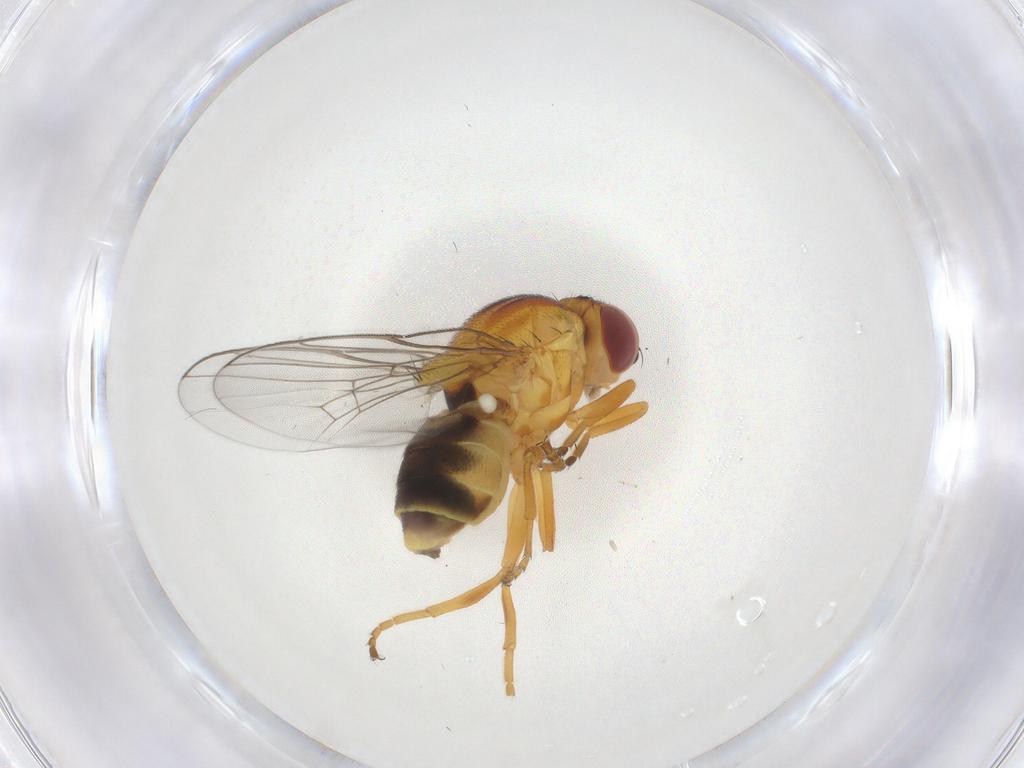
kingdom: Animalia
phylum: Arthropoda
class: Insecta
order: Diptera
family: Chloropidae
